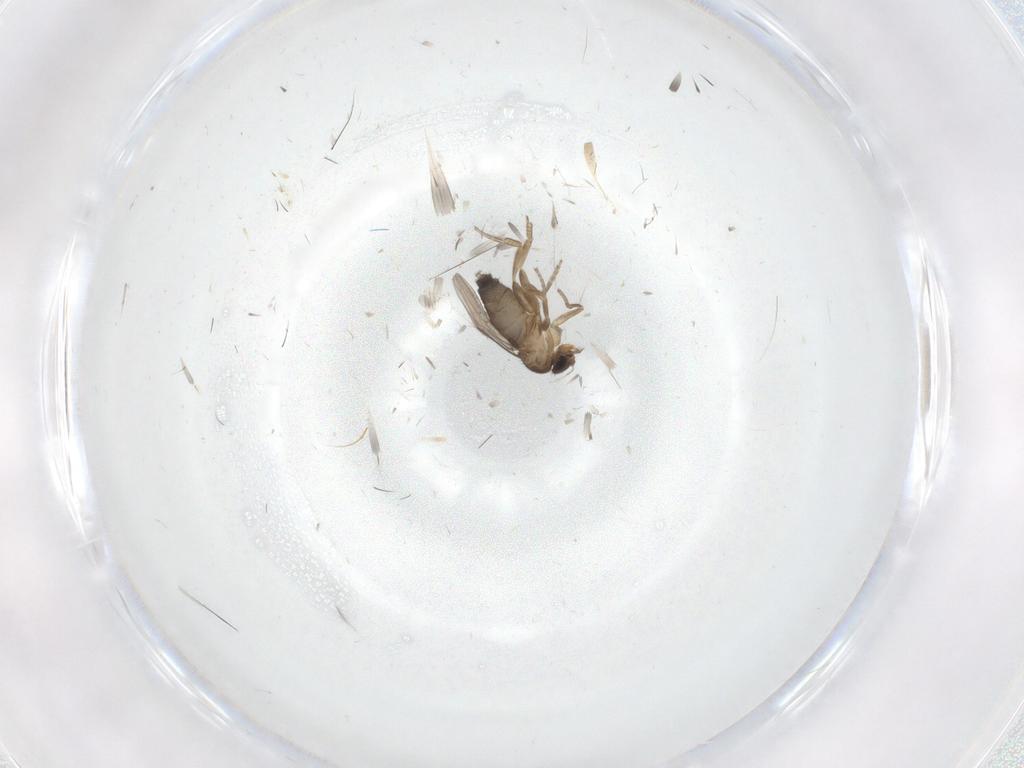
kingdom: Animalia
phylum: Arthropoda
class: Insecta
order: Diptera
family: Phoridae
